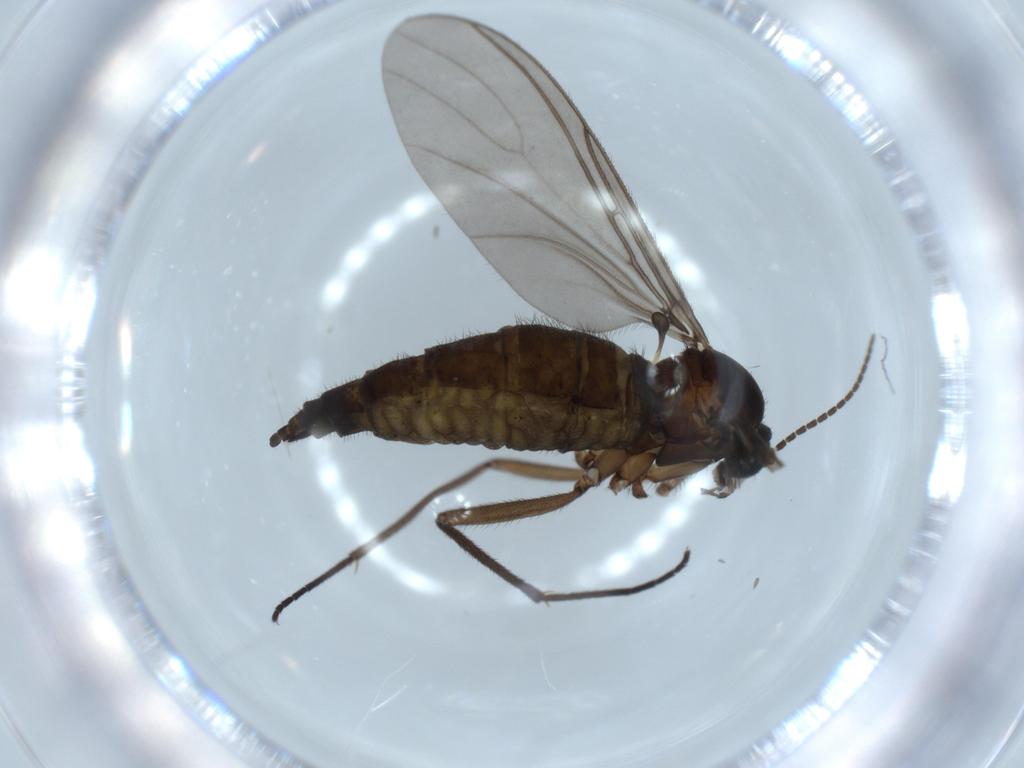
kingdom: Animalia
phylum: Arthropoda
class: Insecta
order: Diptera
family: Sciaridae
